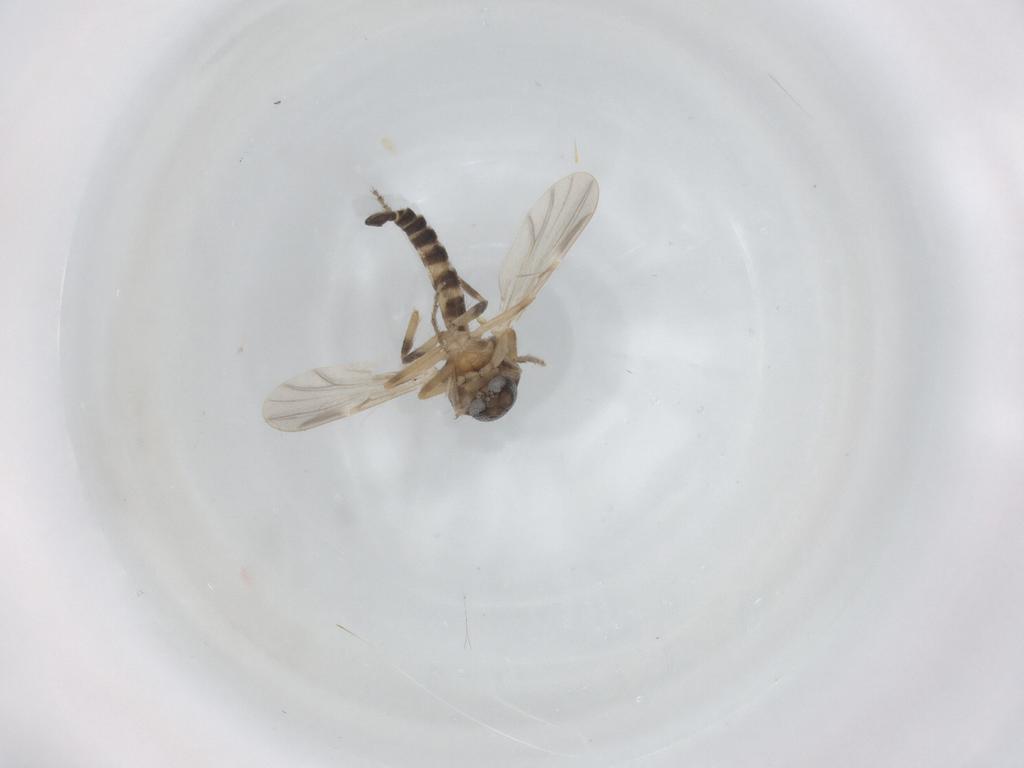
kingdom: Animalia
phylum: Arthropoda
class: Insecta
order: Diptera
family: Ceratopogonidae
